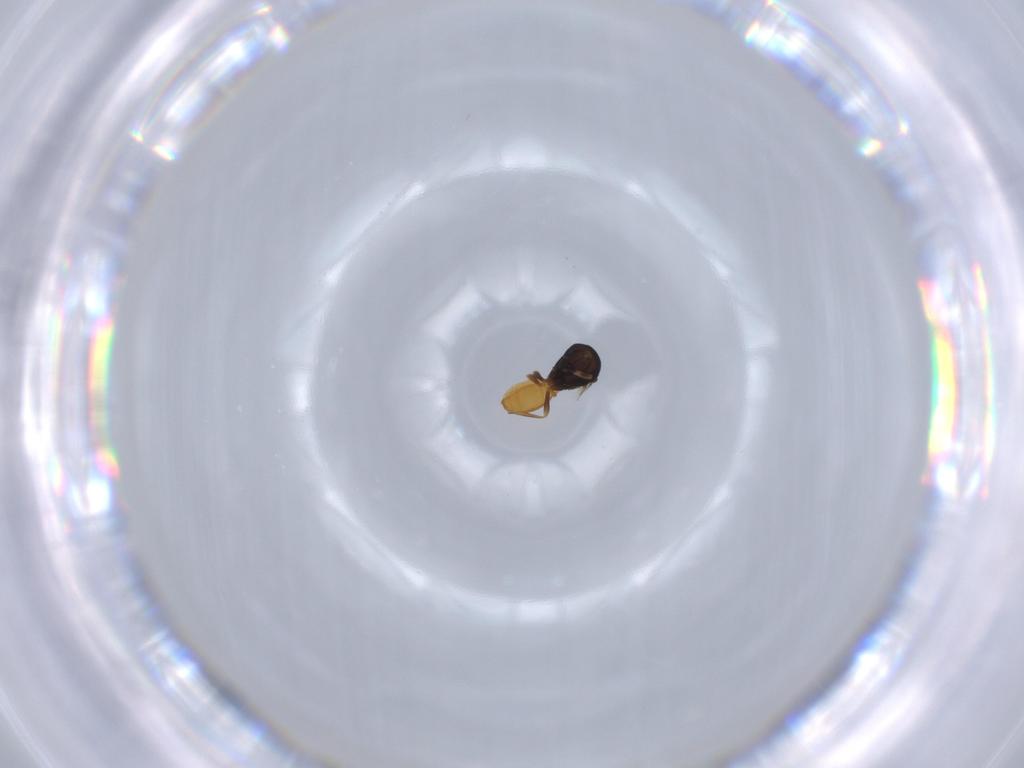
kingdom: Animalia
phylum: Arthropoda
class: Insecta
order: Hymenoptera
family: Scelionidae
